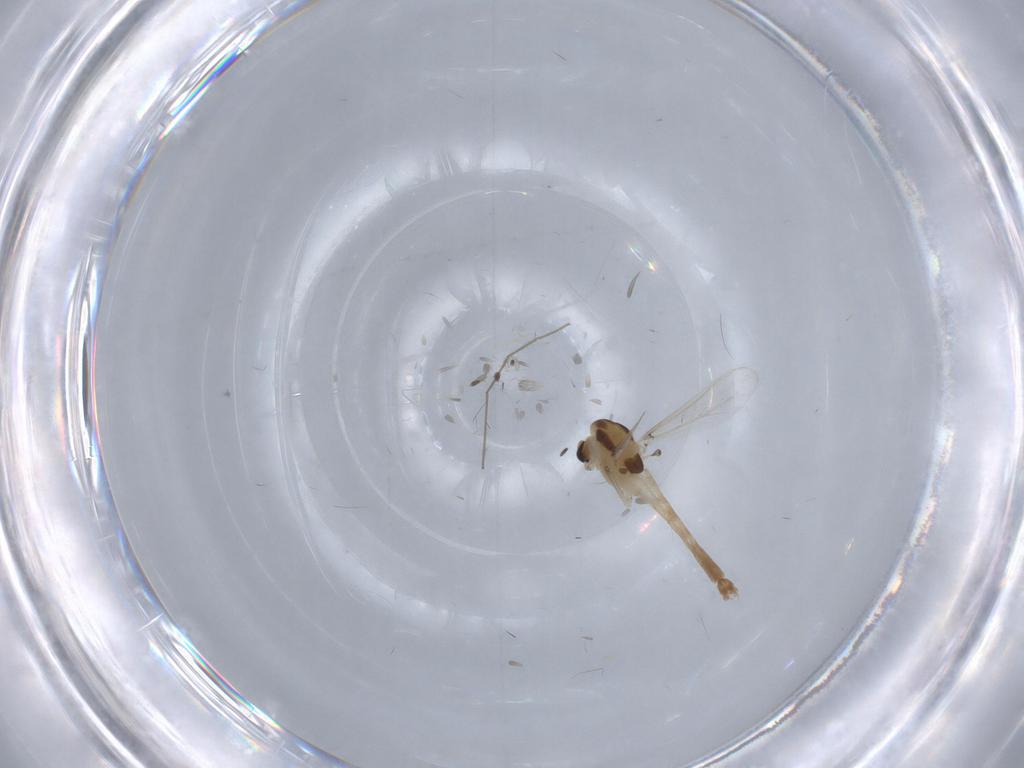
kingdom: Animalia
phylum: Arthropoda
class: Insecta
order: Diptera
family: Chironomidae
